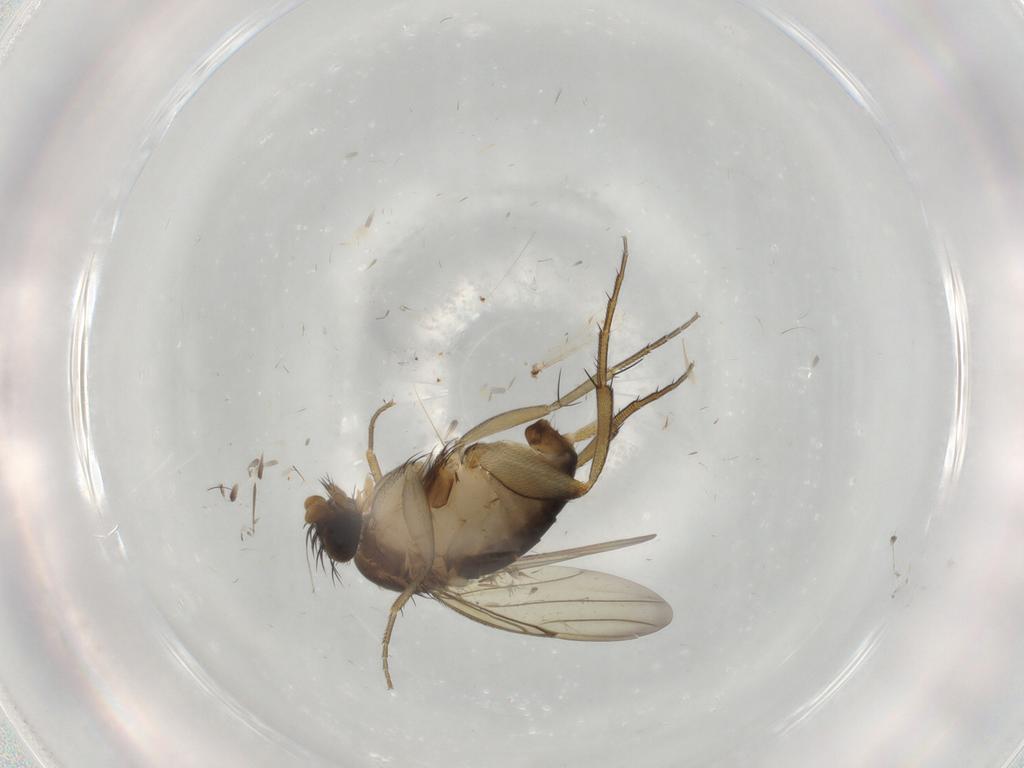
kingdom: Animalia
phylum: Arthropoda
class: Insecta
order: Diptera
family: Phoridae
